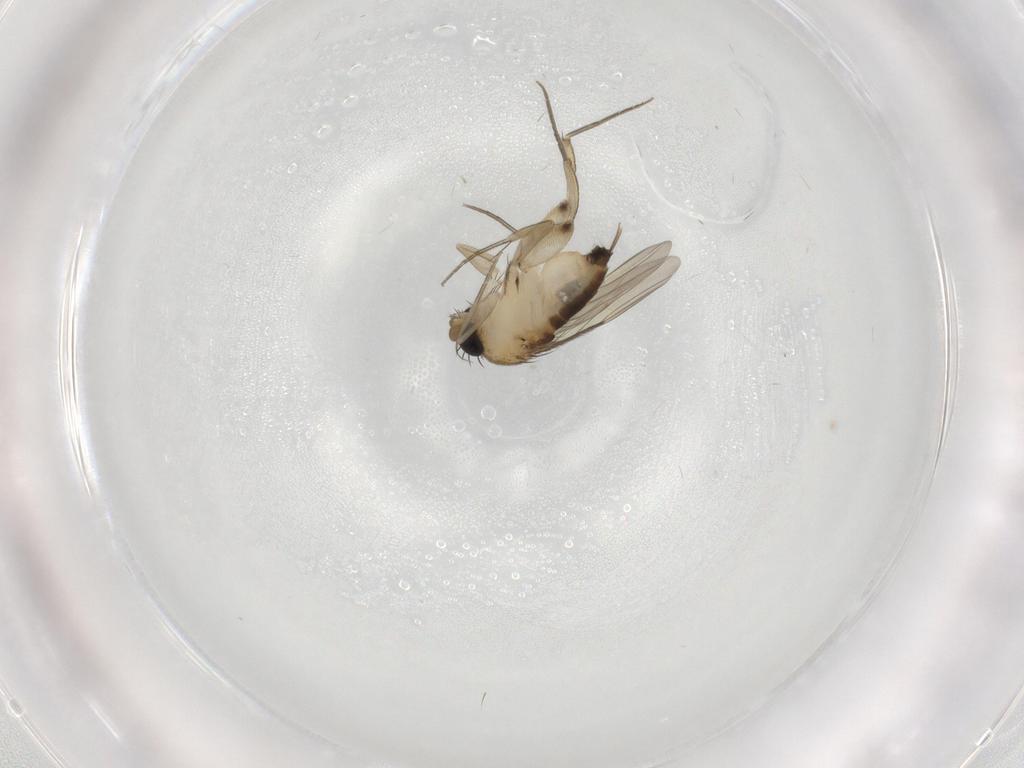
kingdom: Animalia
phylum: Arthropoda
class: Insecta
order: Diptera
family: Phoridae
